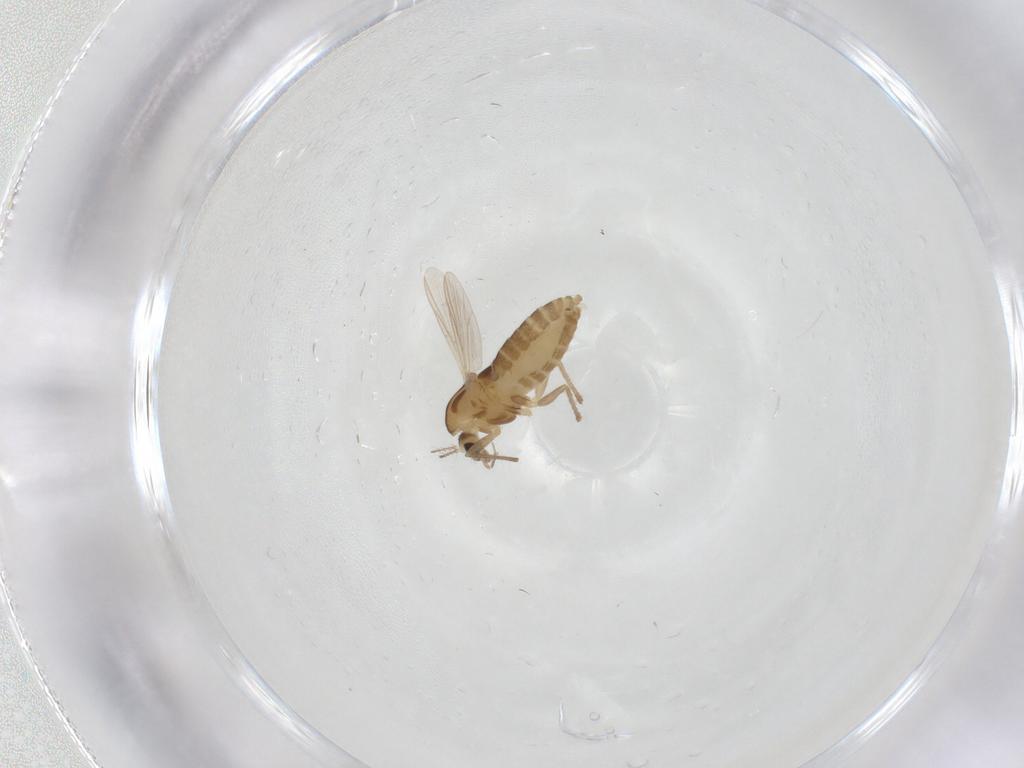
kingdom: Animalia
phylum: Arthropoda
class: Insecta
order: Diptera
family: Chironomidae
